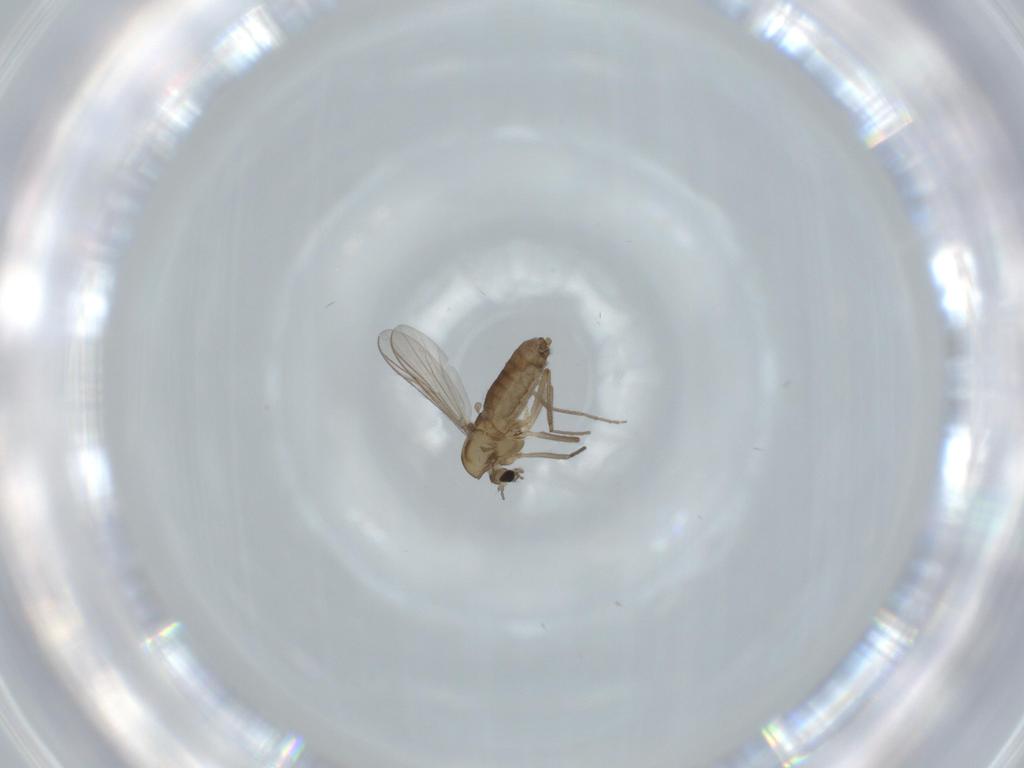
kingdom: Animalia
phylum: Arthropoda
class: Insecta
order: Diptera
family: Chironomidae
